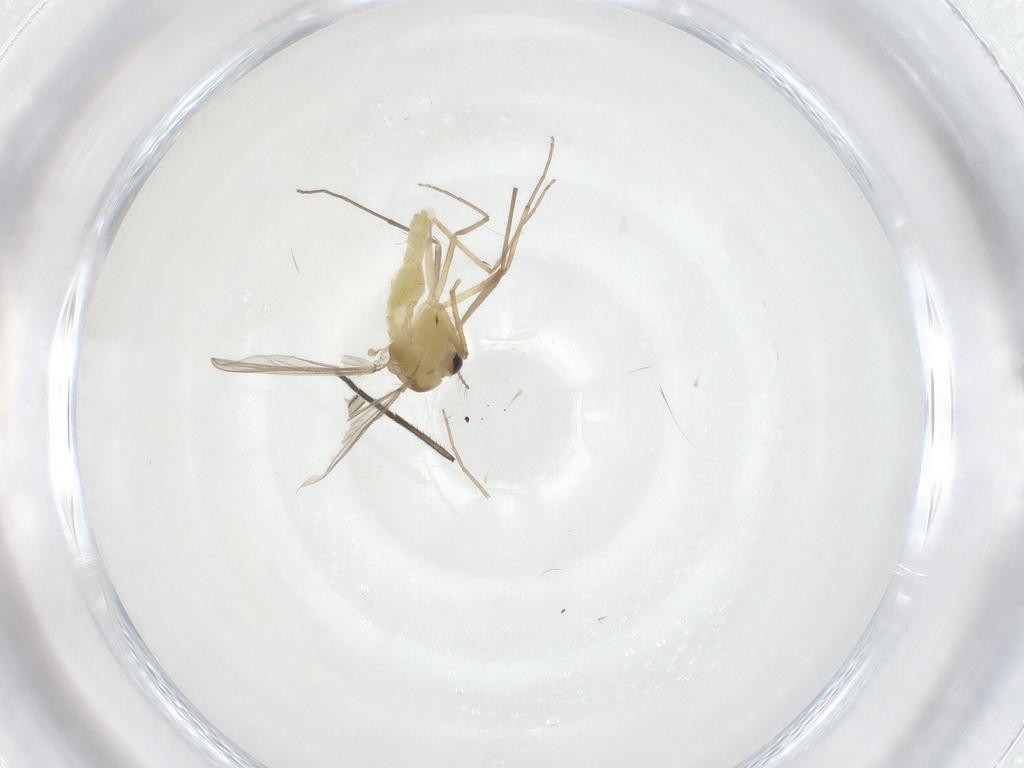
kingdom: Animalia
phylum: Arthropoda
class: Insecta
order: Diptera
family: Chironomidae
